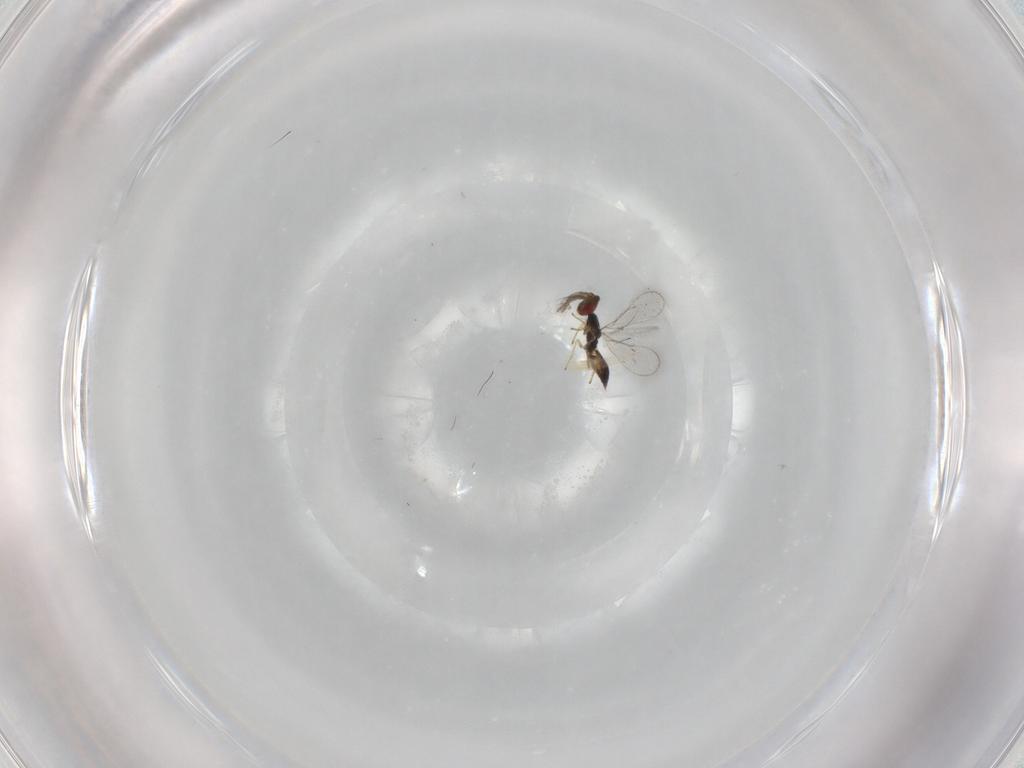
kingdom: Animalia
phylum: Arthropoda
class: Insecta
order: Hymenoptera
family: Eulophidae
